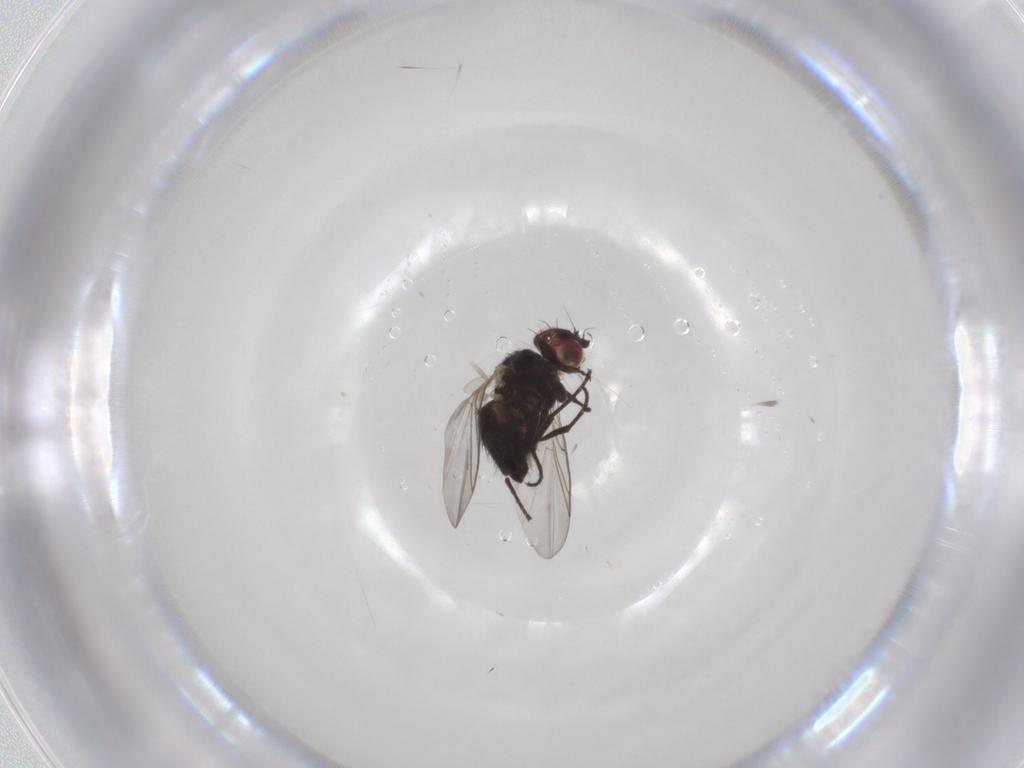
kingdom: Animalia
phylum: Arthropoda
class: Insecta
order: Diptera
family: Agromyzidae
